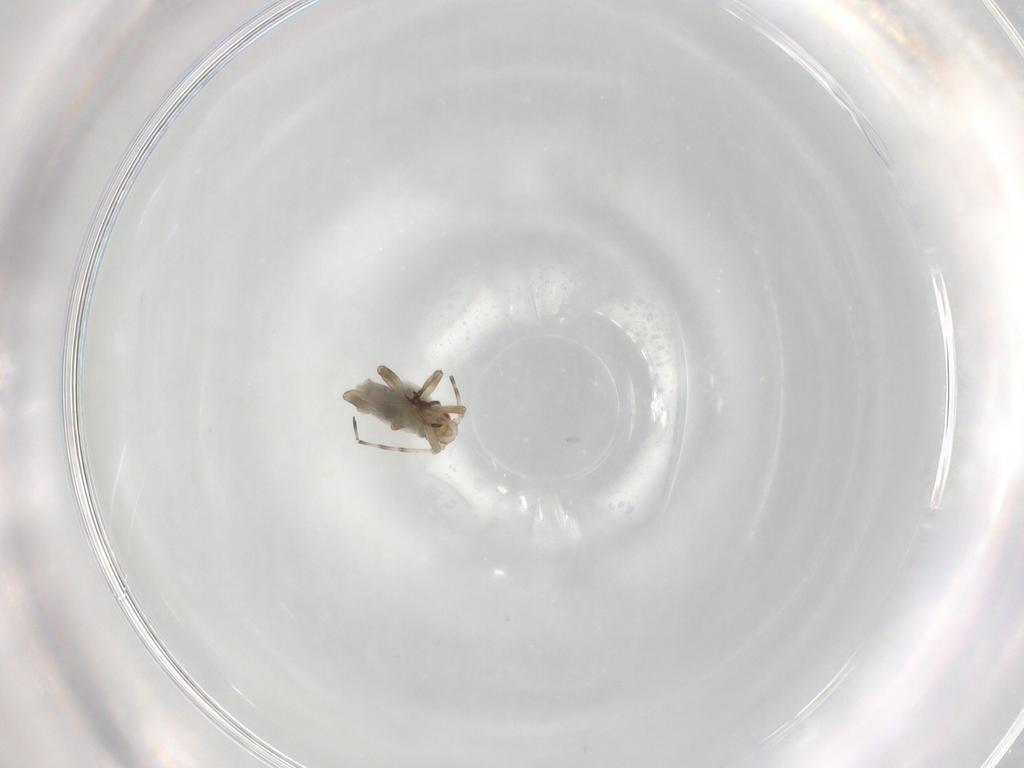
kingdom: Animalia
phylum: Arthropoda
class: Insecta
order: Hemiptera
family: Aphididae
